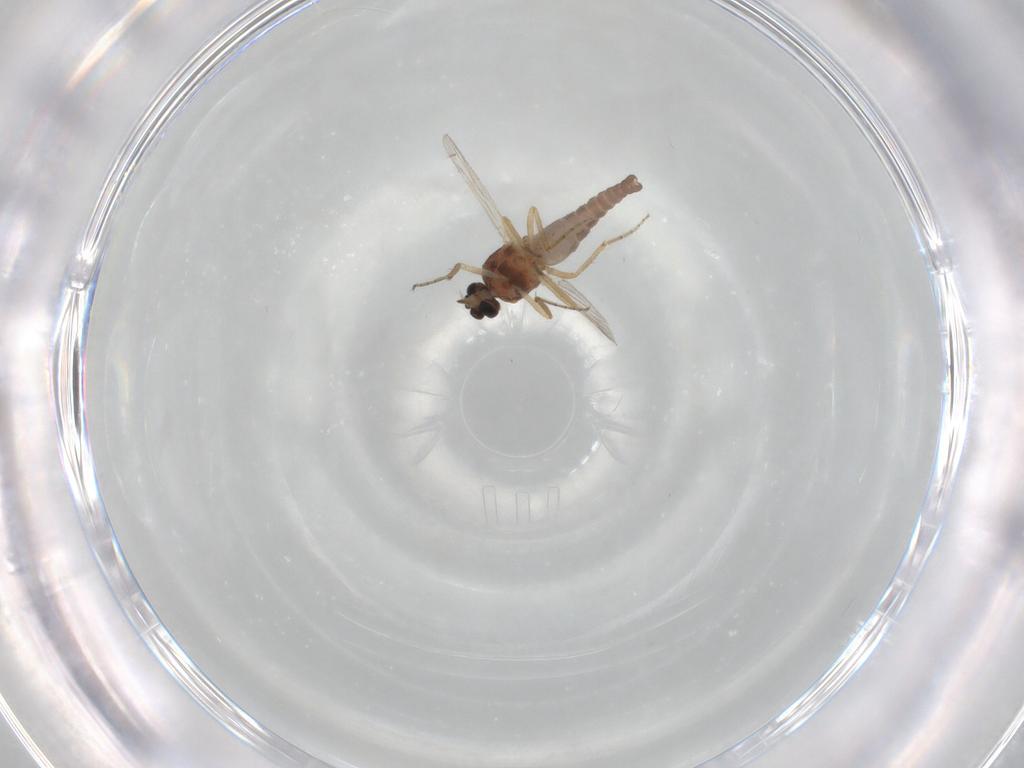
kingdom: Animalia
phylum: Arthropoda
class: Insecta
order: Diptera
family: Ceratopogonidae
